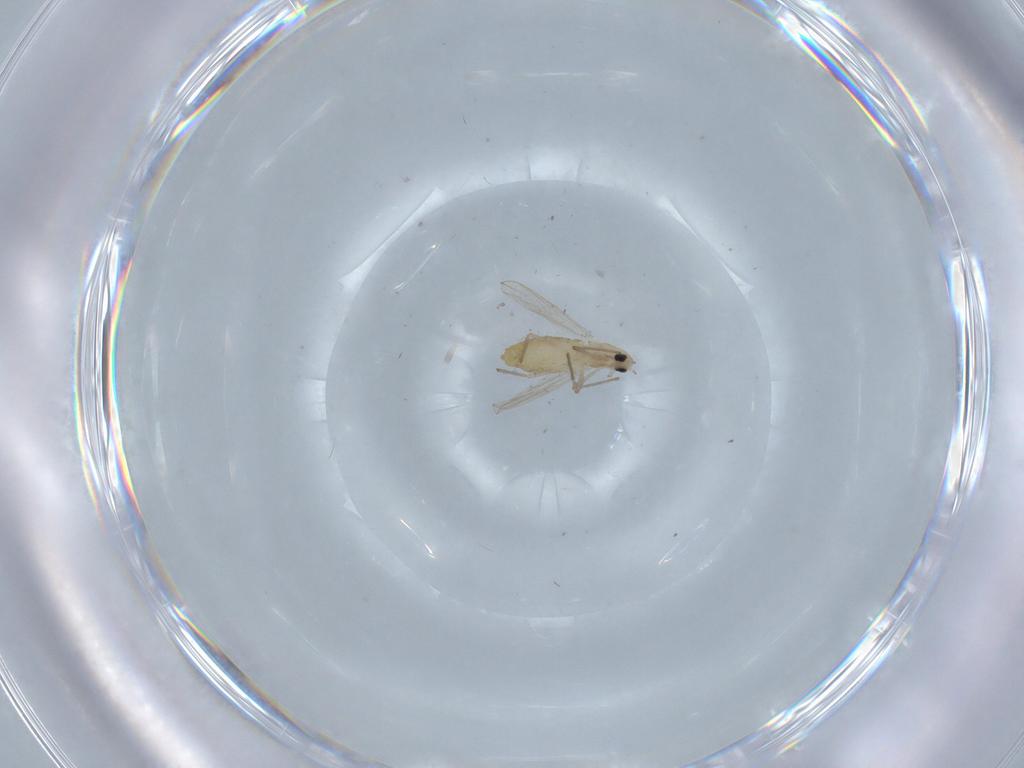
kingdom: Animalia
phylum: Arthropoda
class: Insecta
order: Diptera
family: Chironomidae
